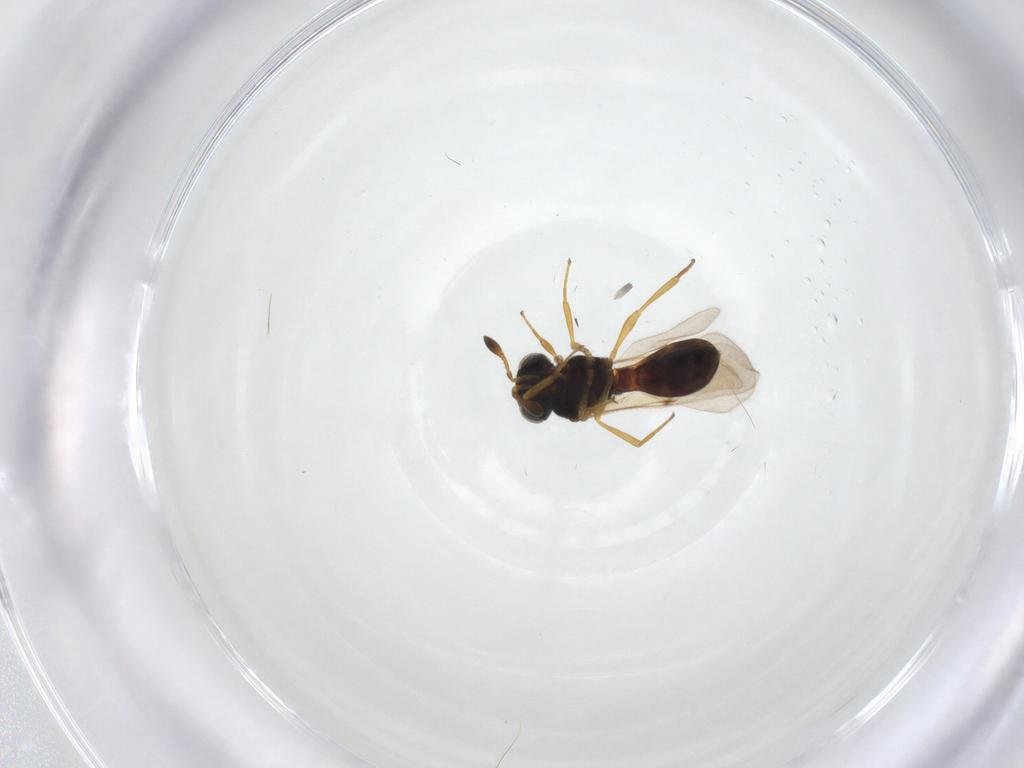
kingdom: Animalia
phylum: Arthropoda
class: Insecta
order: Hymenoptera
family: Scelionidae
